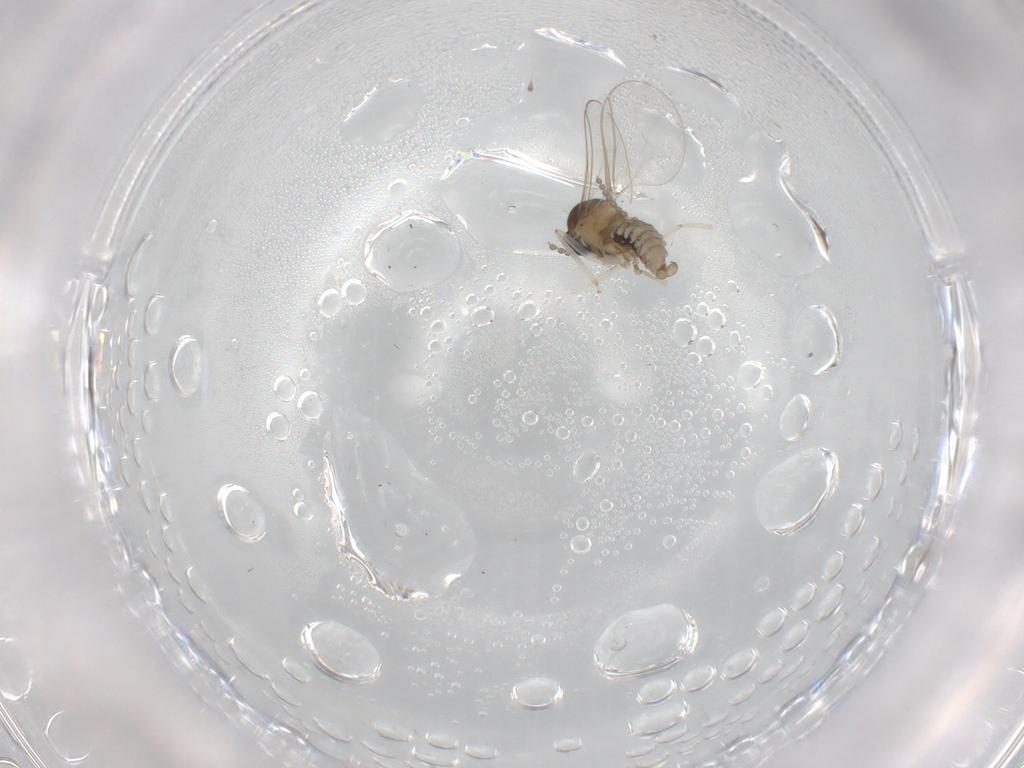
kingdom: Animalia
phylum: Arthropoda
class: Insecta
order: Diptera
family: Cecidomyiidae
